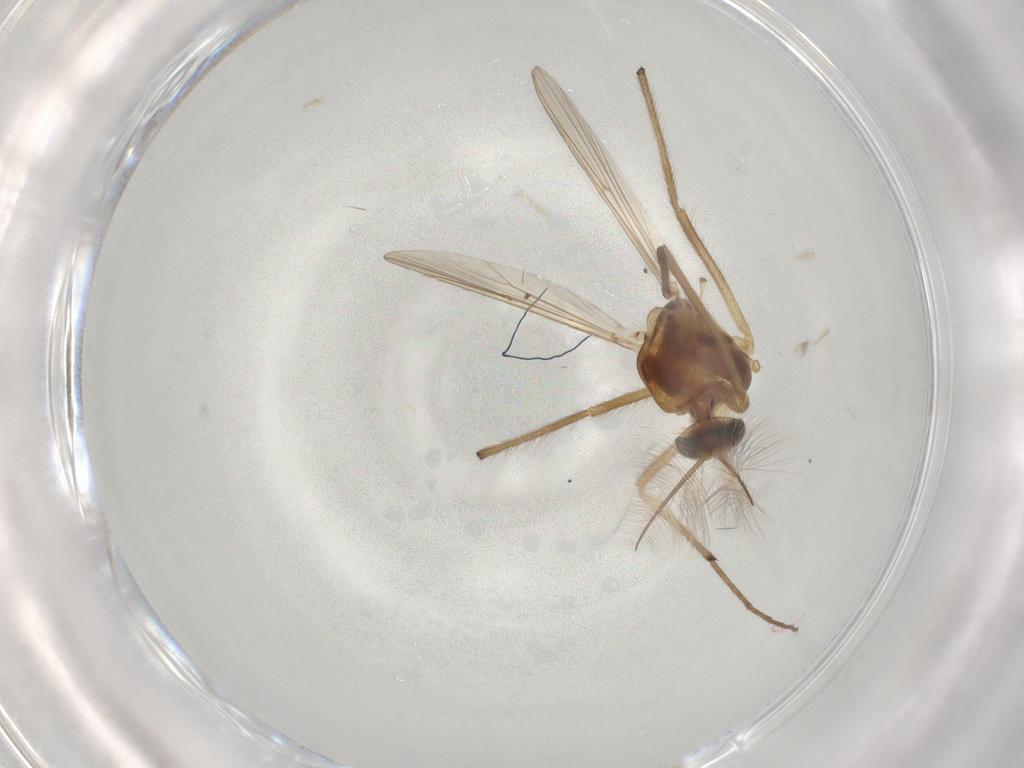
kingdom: Animalia
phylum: Arthropoda
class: Insecta
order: Diptera
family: Chironomidae
